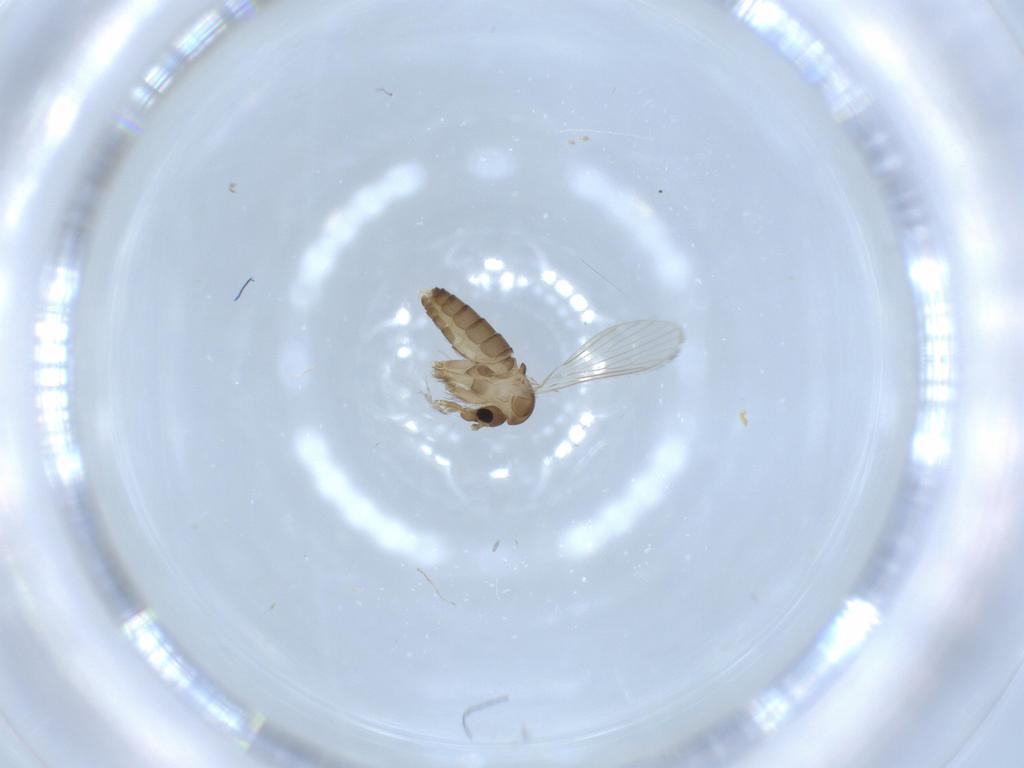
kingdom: Animalia
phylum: Arthropoda
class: Insecta
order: Diptera
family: Psychodidae
